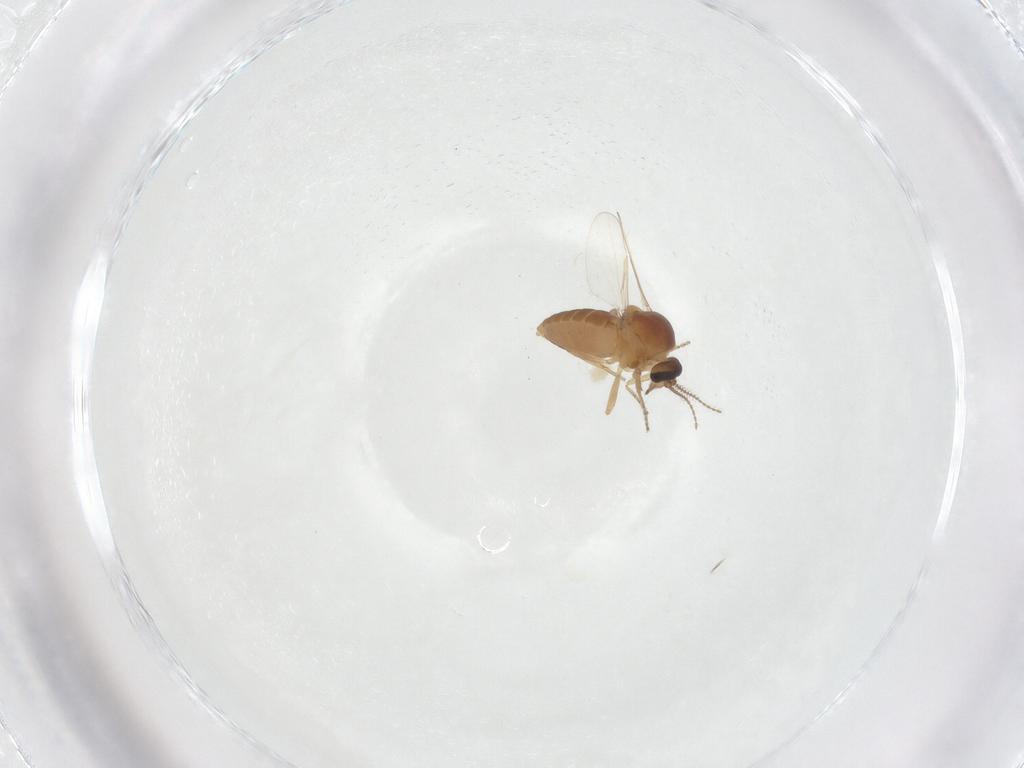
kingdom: Animalia
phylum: Arthropoda
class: Insecta
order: Diptera
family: Ceratopogonidae
